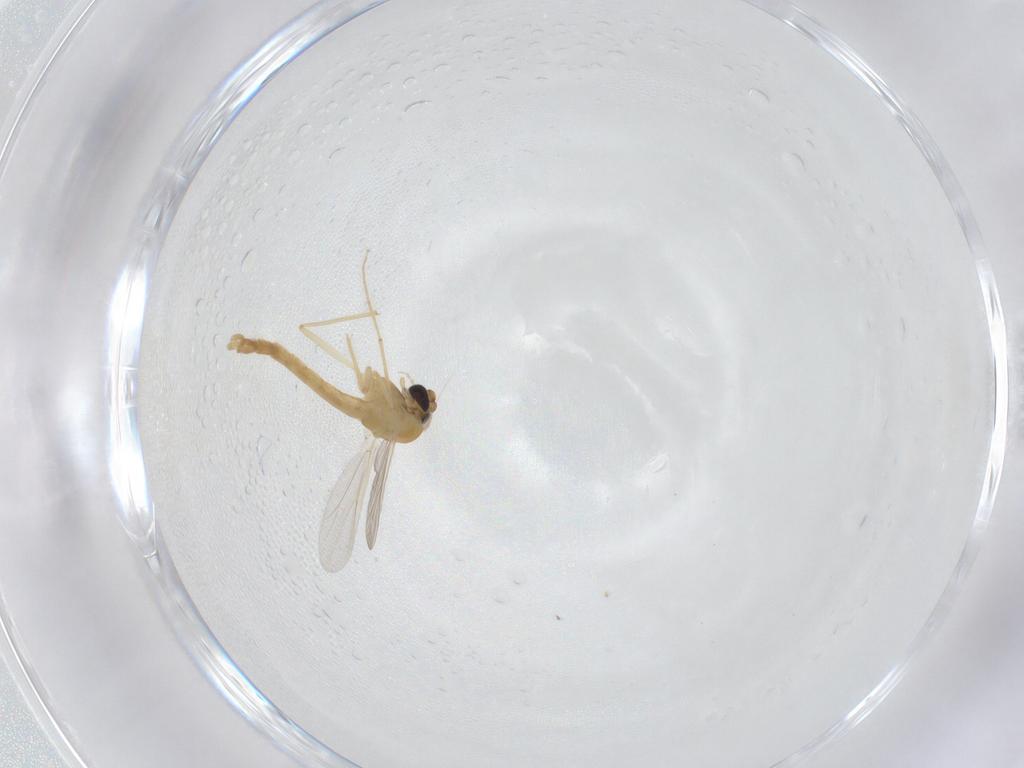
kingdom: Animalia
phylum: Arthropoda
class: Insecta
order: Diptera
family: Chironomidae
